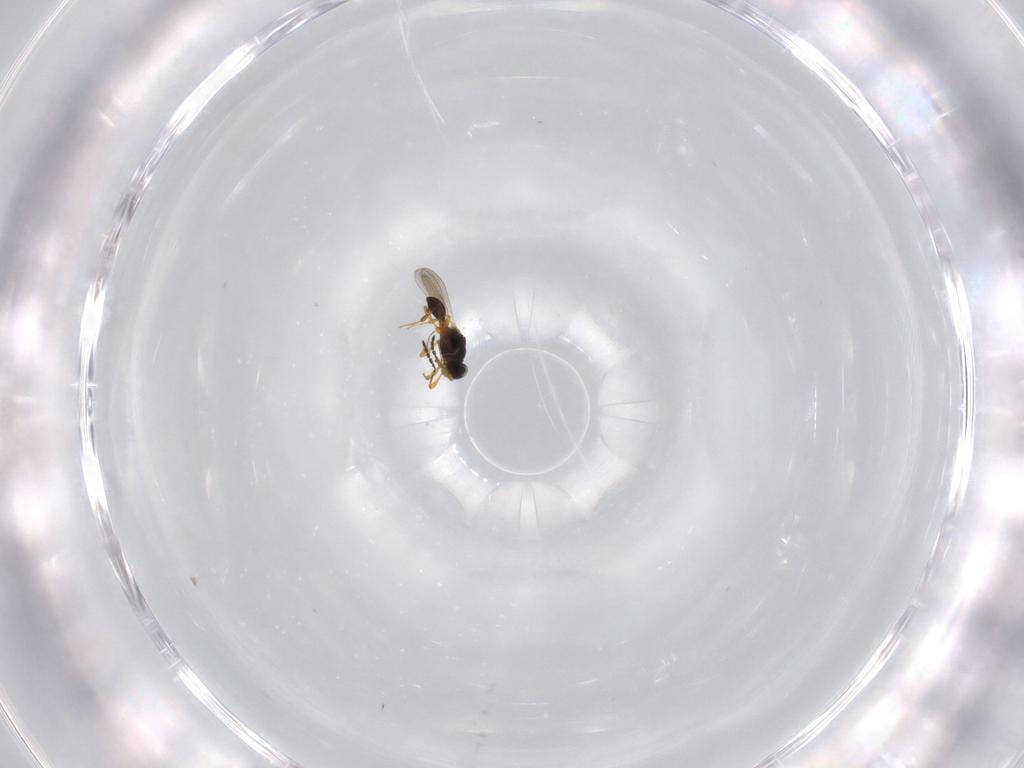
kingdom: Animalia
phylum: Arthropoda
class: Insecta
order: Hymenoptera
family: Platygastridae
